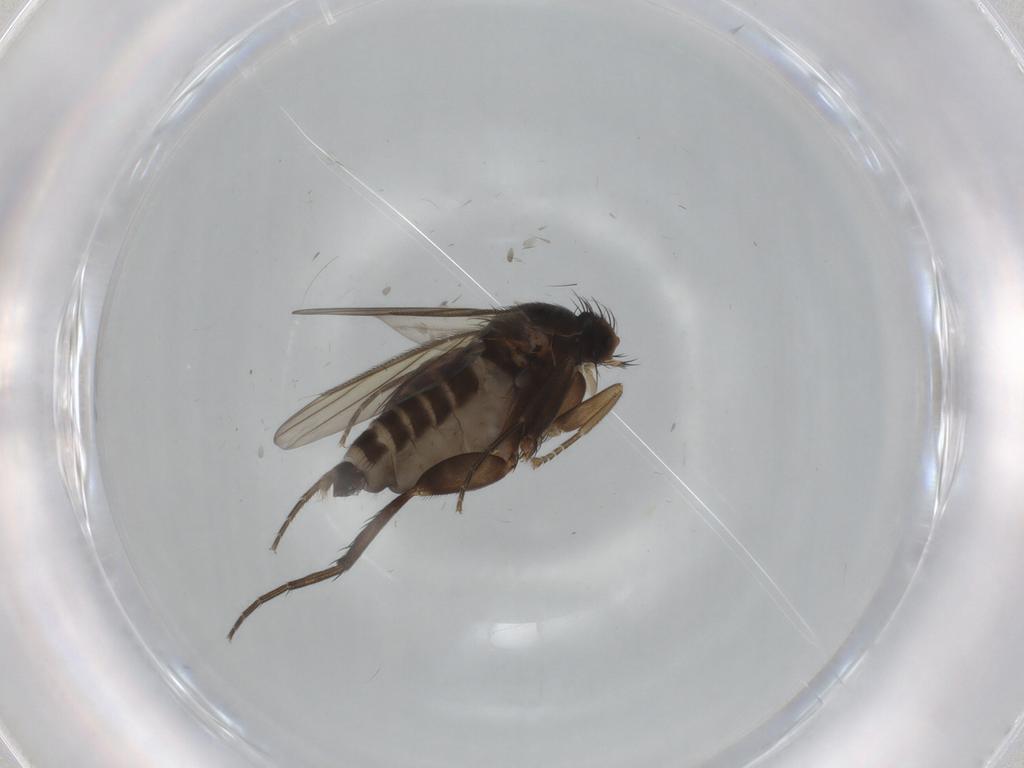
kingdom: Animalia
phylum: Arthropoda
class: Insecta
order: Diptera
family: Phoridae
